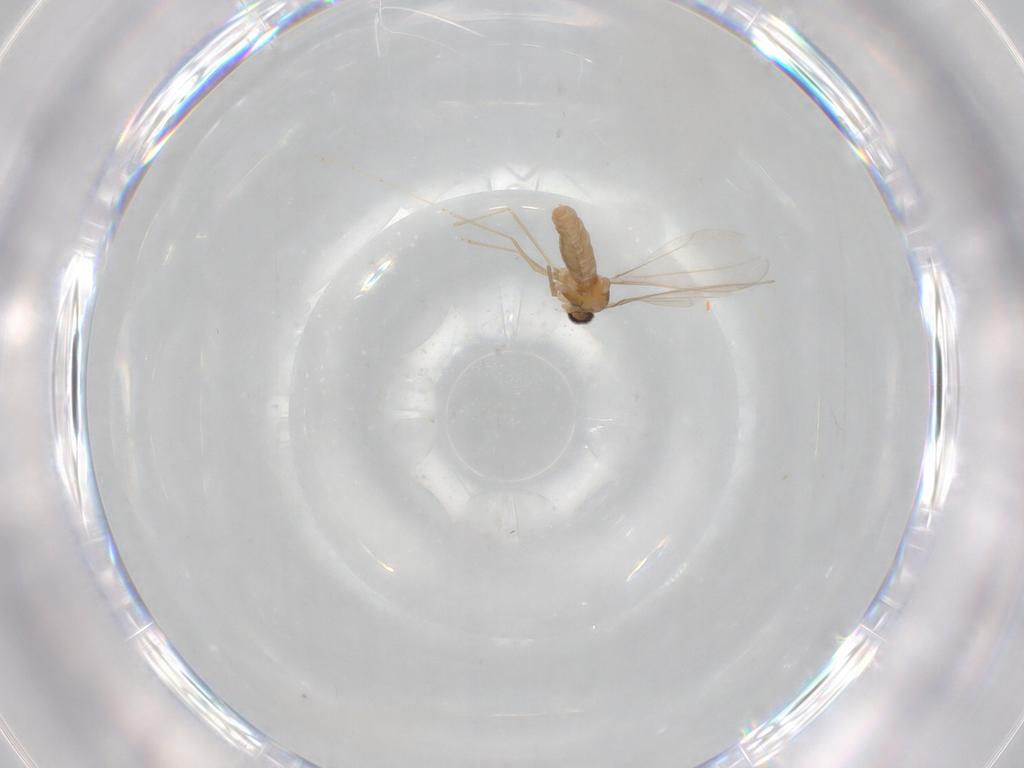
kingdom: Animalia
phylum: Arthropoda
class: Insecta
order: Diptera
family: Cecidomyiidae
